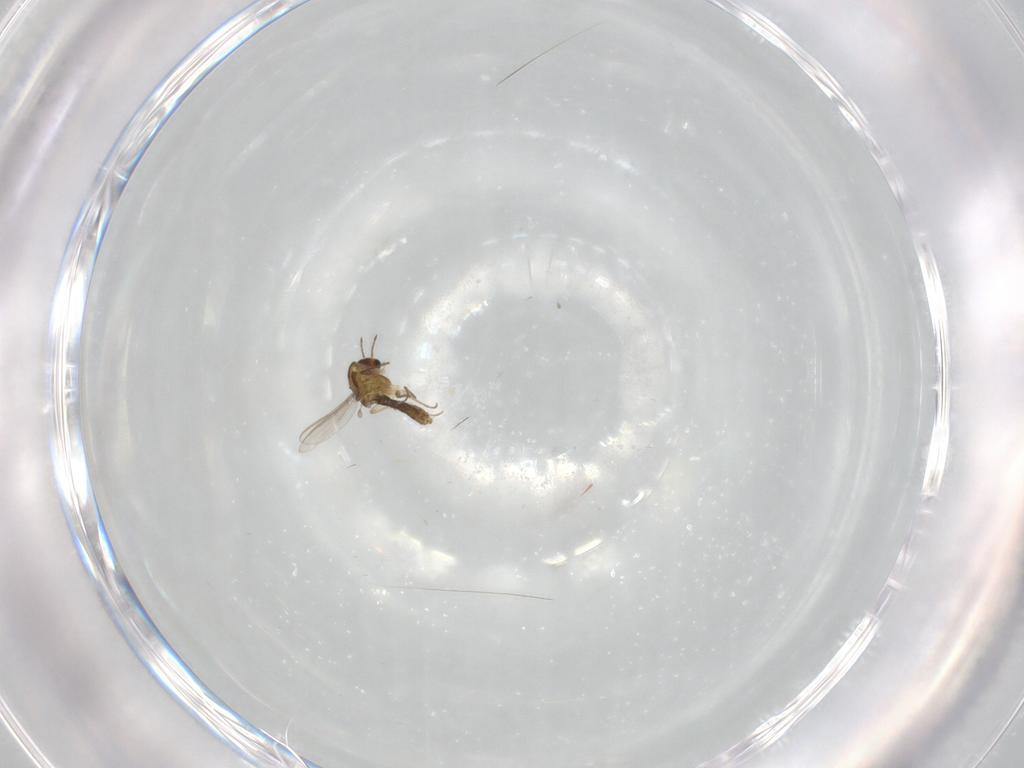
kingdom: Animalia
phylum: Arthropoda
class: Insecta
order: Diptera
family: Chironomidae
